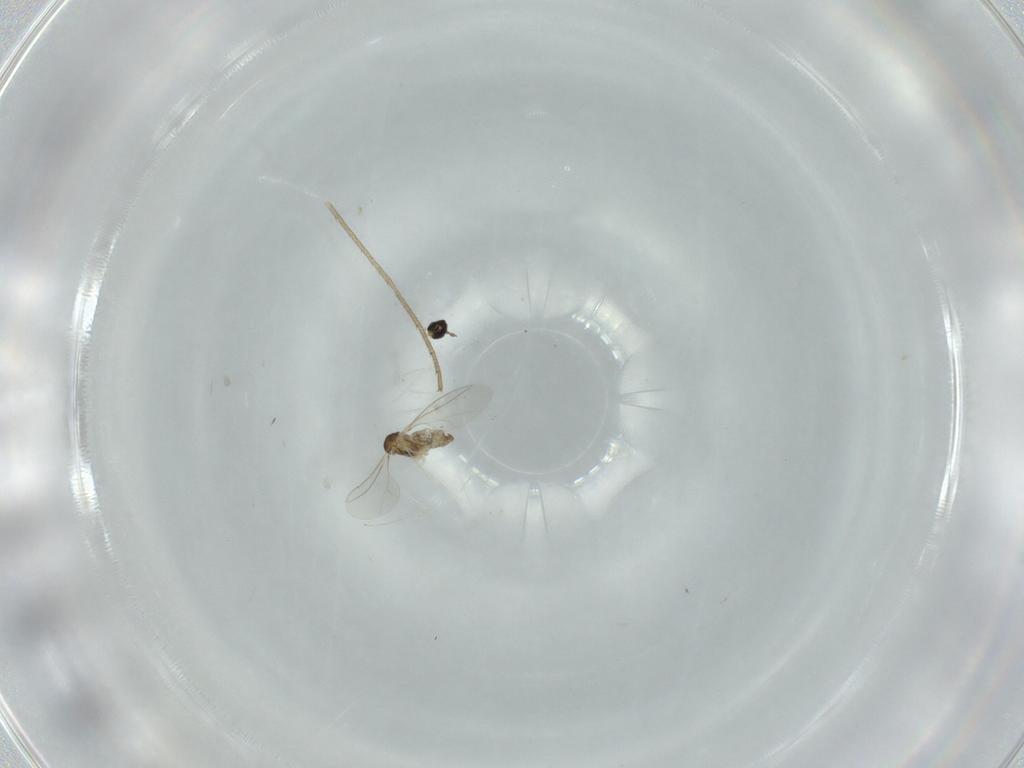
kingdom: Animalia
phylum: Arthropoda
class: Insecta
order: Diptera
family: Cecidomyiidae
